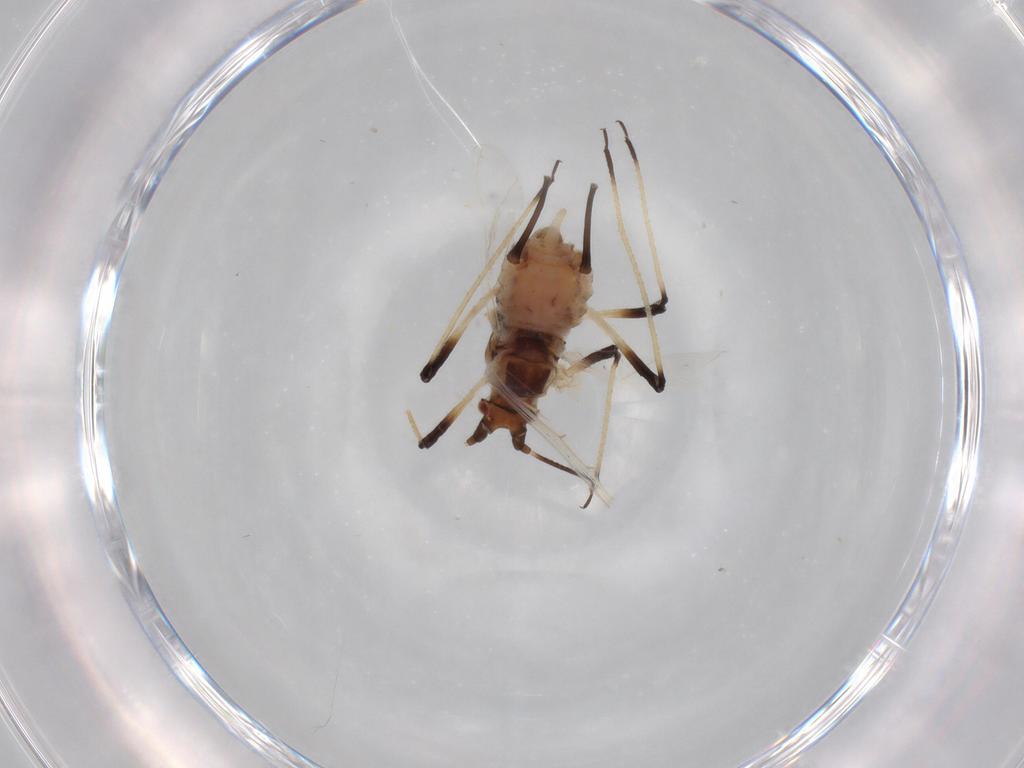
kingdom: Animalia
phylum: Arthropoda
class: Insecta
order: Hemiptera
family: Aphididae
